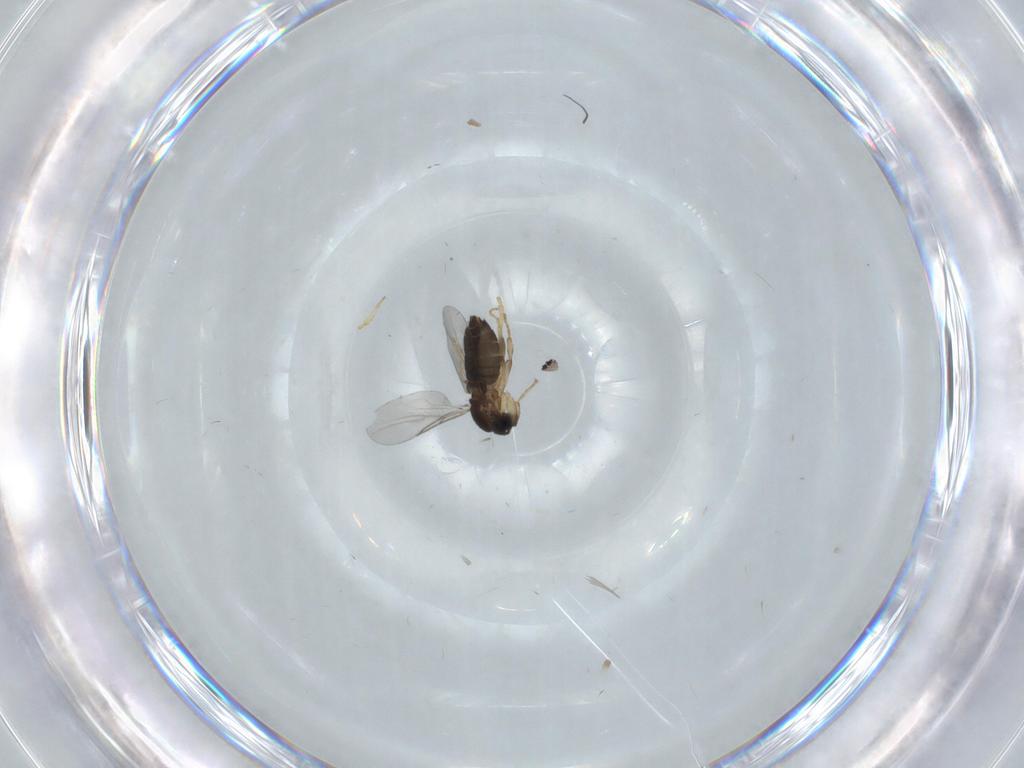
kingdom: Animalia
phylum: Arthropoda
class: Insecta
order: Diptera
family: Scatopsidae
